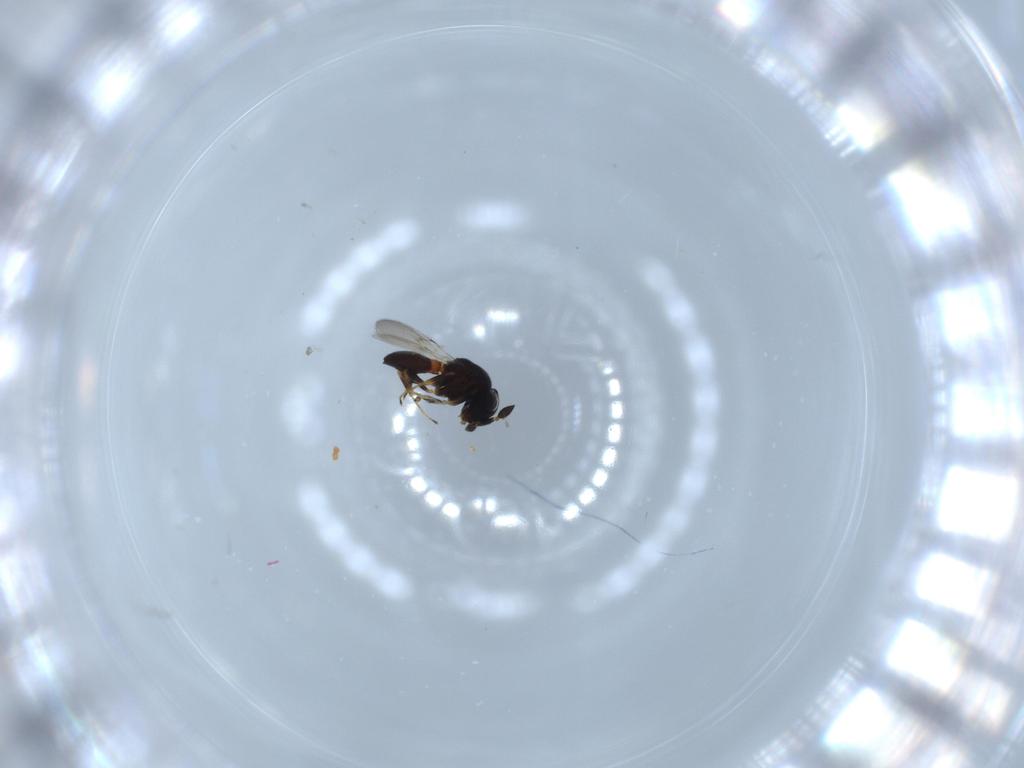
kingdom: Animalia
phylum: Arthropoda
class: Insecta
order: Hymenoptera
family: Scelionidae
